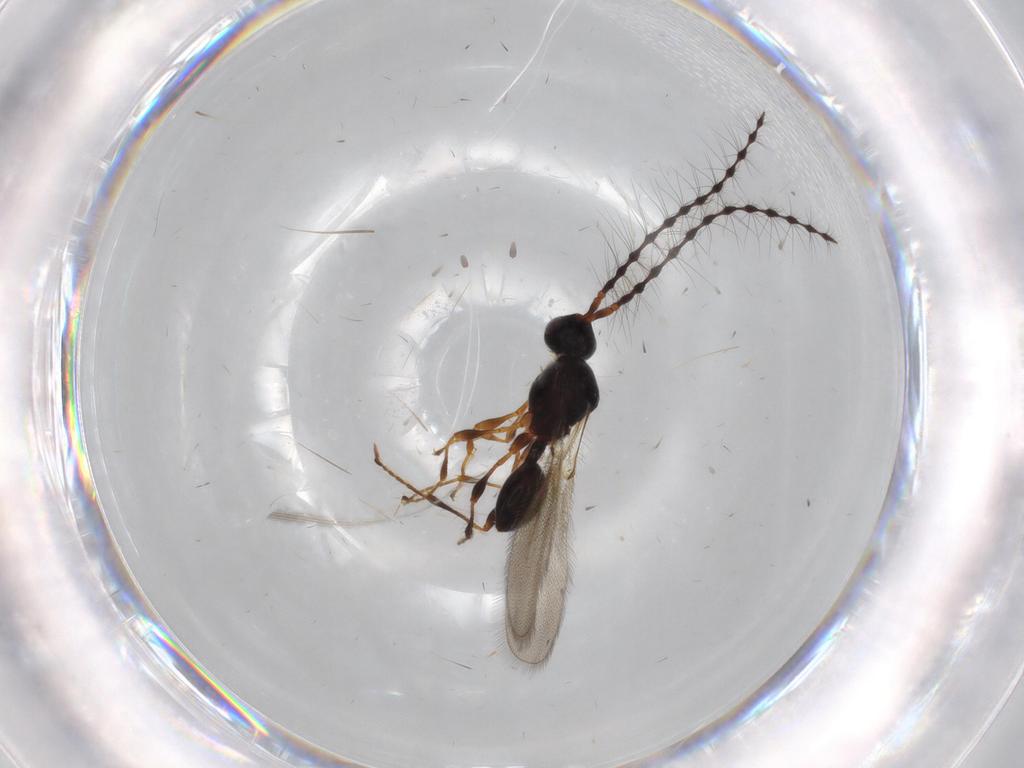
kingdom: Animalia
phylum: Arthropoda
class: Insecta
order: Hymenoptera
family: Diapriidae
